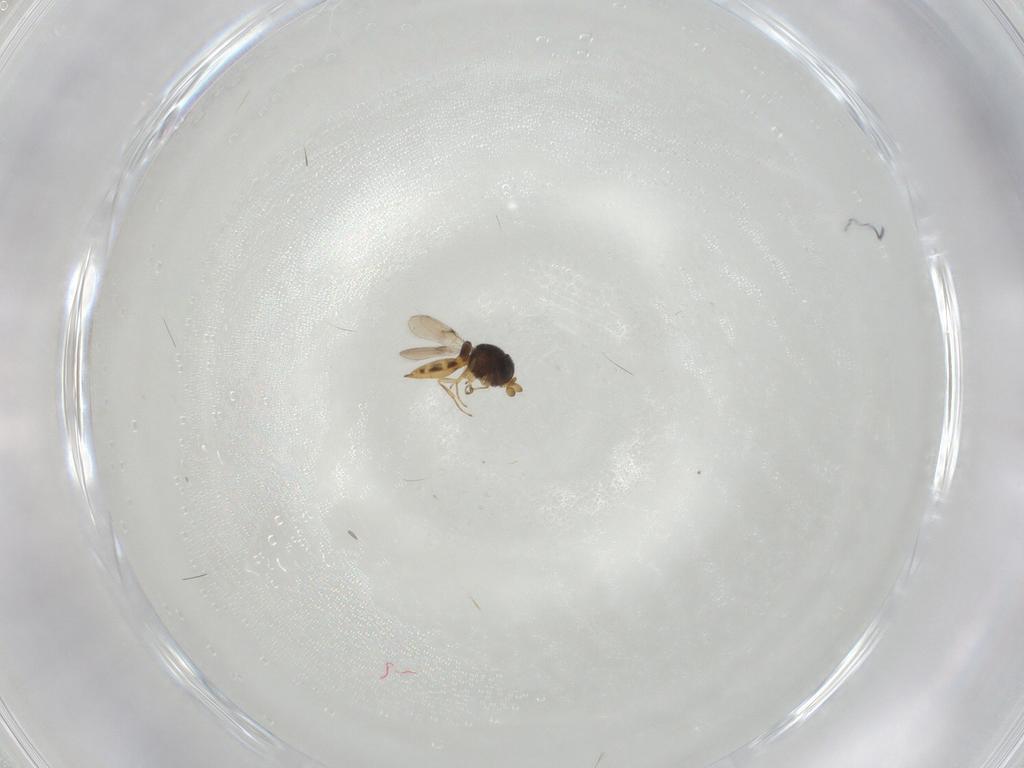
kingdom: Animalia
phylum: Arthropoda
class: Insecta
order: Hymenoptera
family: Scelionidae
